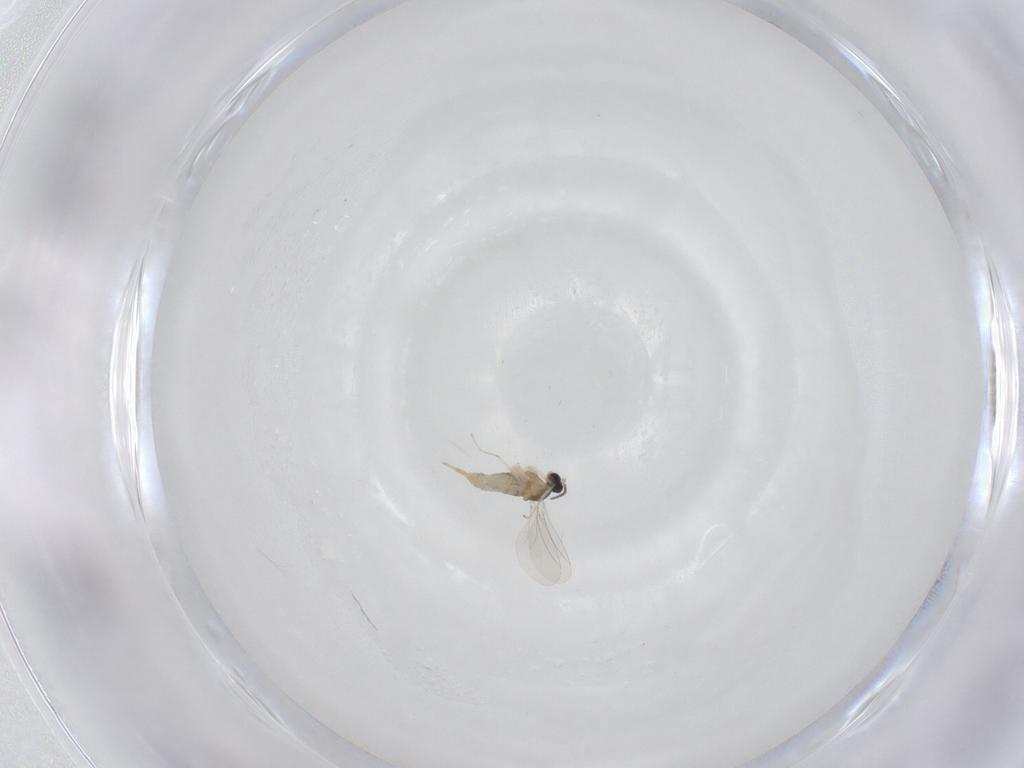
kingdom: Animalia
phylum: Arthropoda
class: Insecta
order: Diptera
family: Cecidomyiidae
